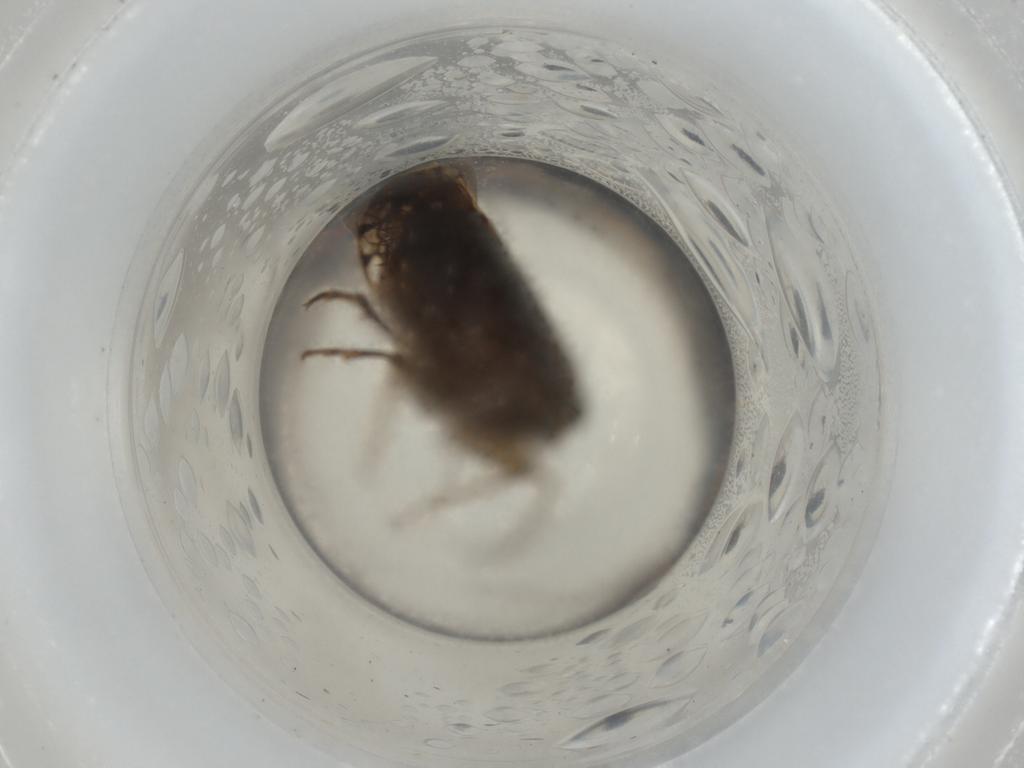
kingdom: Animalia
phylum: Arthropoda
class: Insecta
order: Hemiptera
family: Cicadellidae
